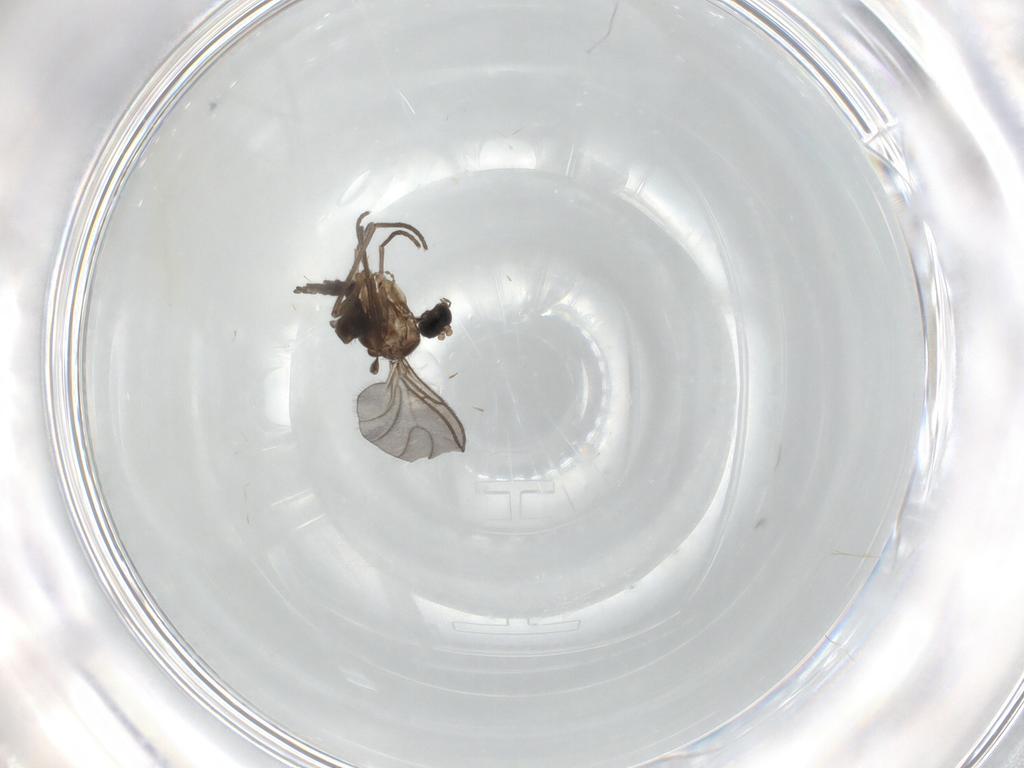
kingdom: Animalia
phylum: Arthropoda
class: Insecta
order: Diptera
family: Sciaridae
